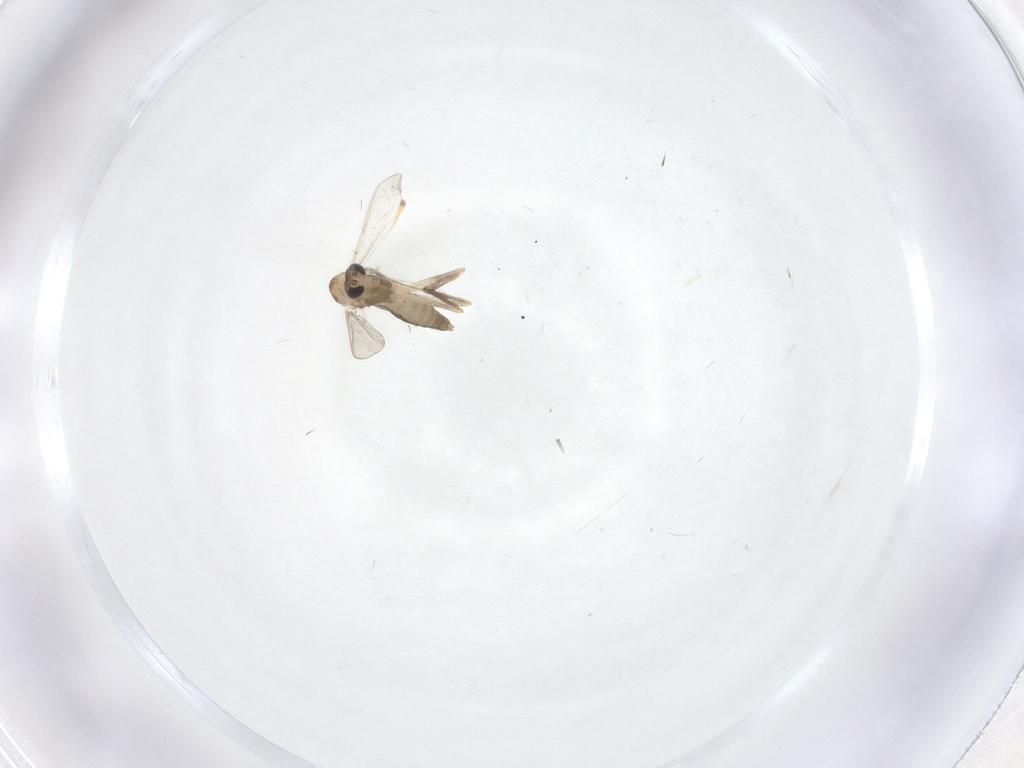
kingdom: Animalia
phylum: Arthropoda
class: Insecta
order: Diptera
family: Chironomidae
